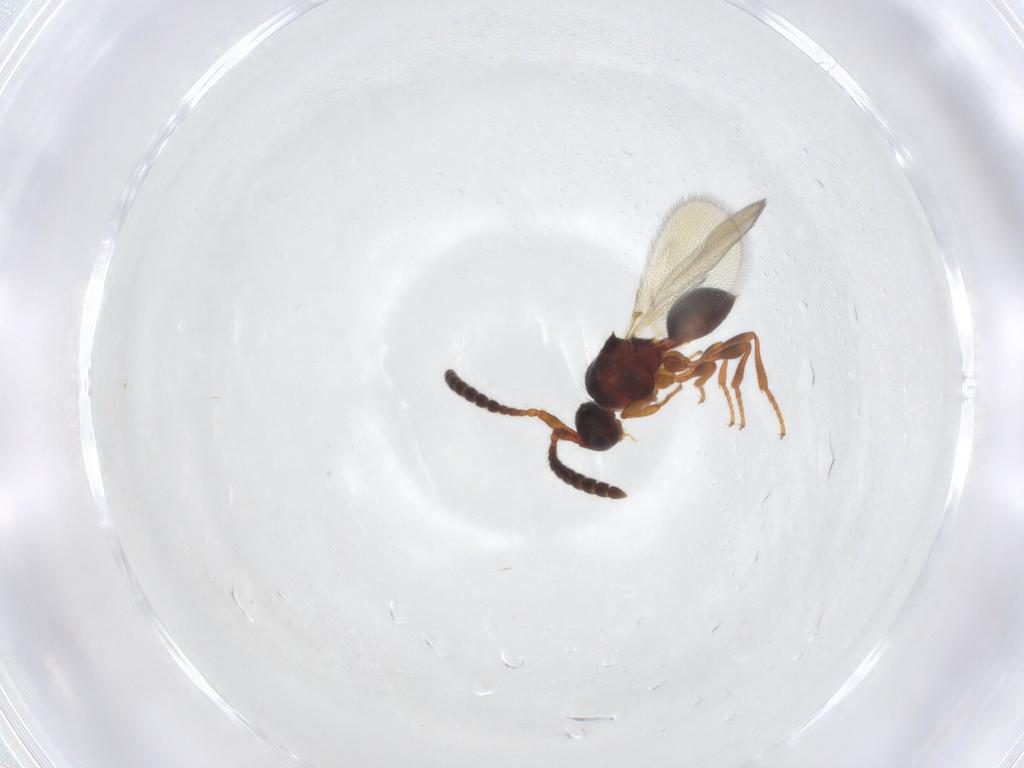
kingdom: Animalia
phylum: Arthropoda
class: Insecta
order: Hymenoptera
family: Diapriidae
